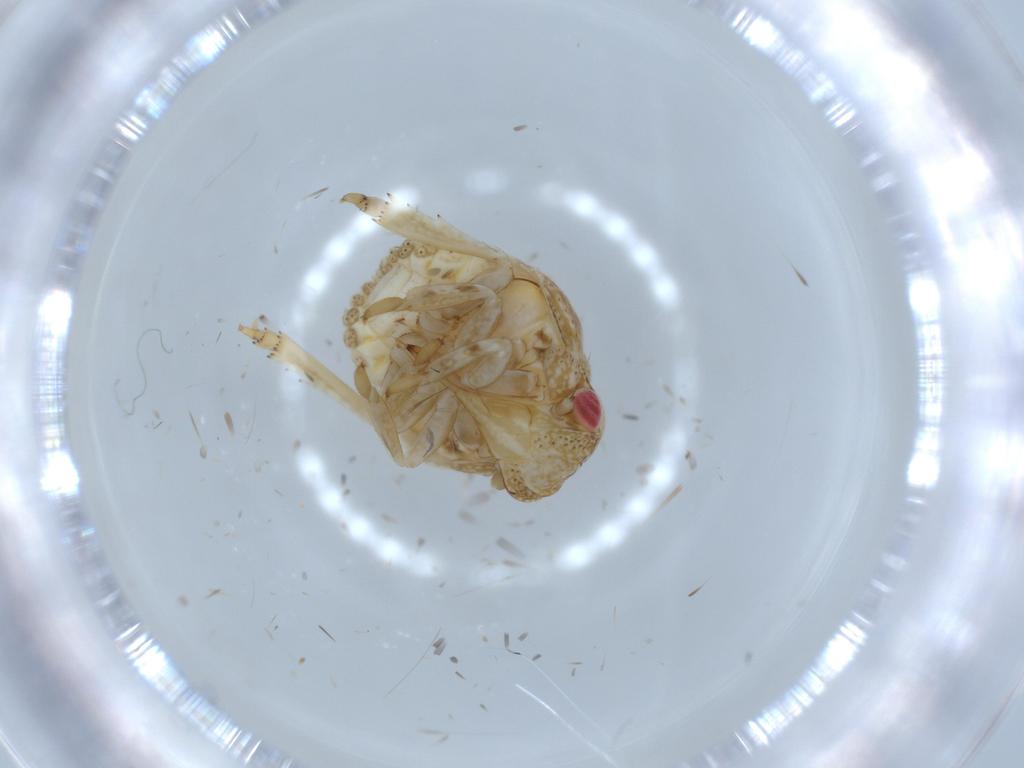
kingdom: Animalia
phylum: Arthropoda
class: Insecta
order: Hemiptera
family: Acanaloniidae
